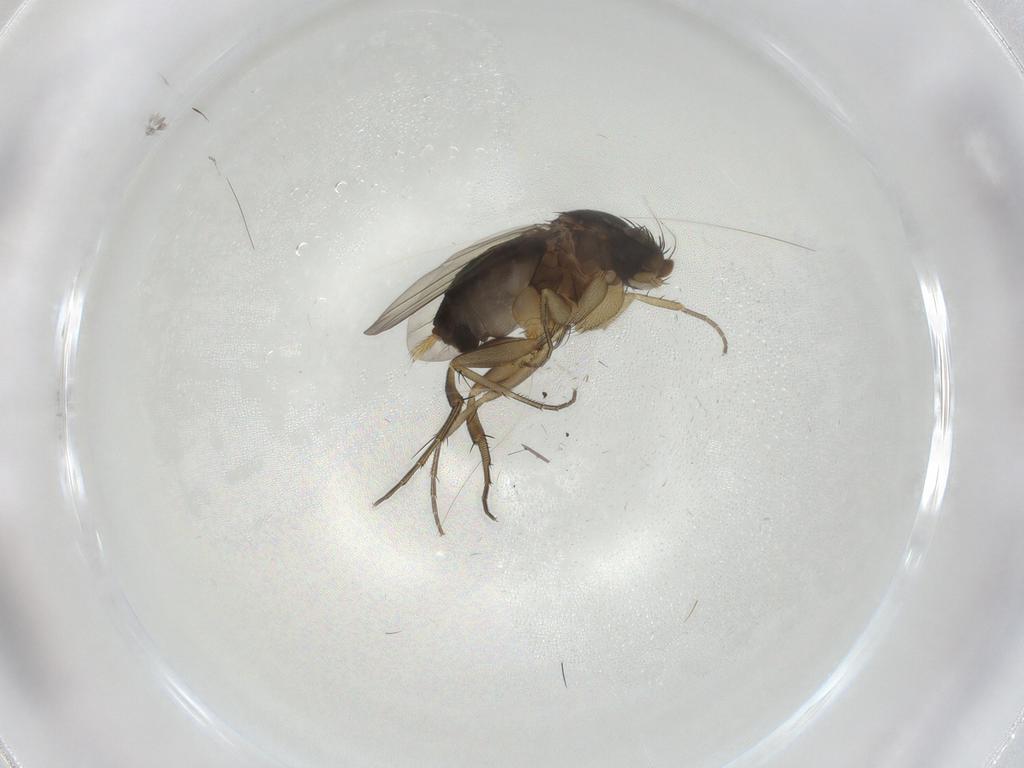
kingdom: Animalia
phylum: Arthropoda
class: Insecta
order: Diptera
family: Phoridae
